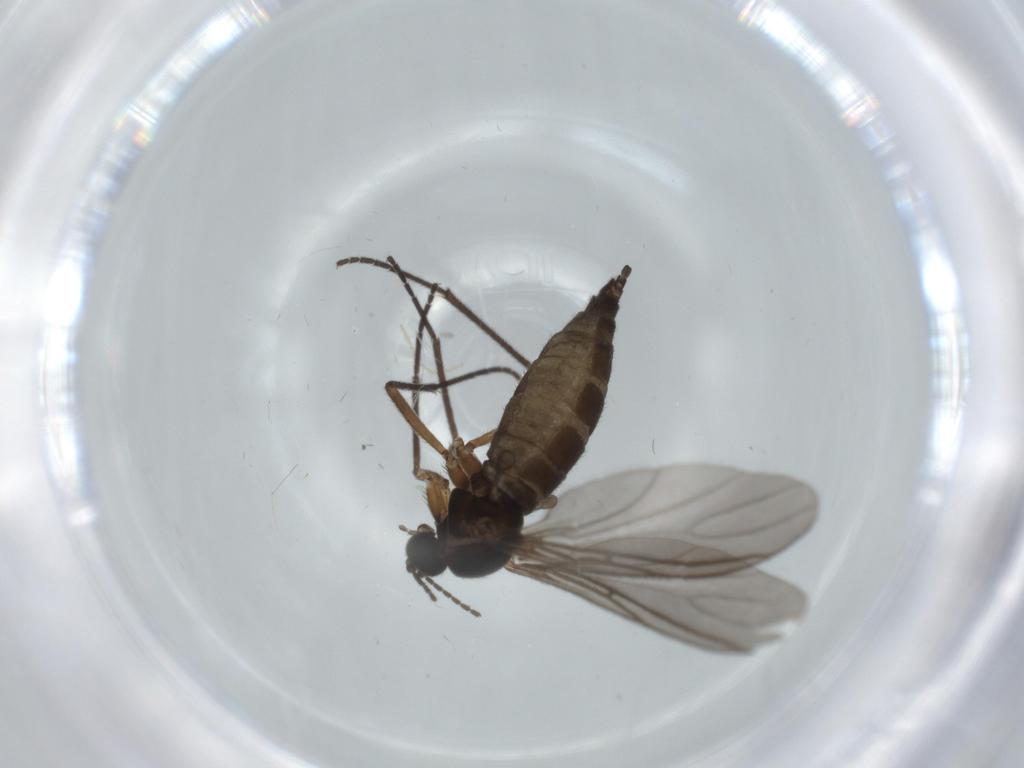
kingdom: Animalia
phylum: Arthropoda
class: Insecta
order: Diptera
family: Sciaridae
